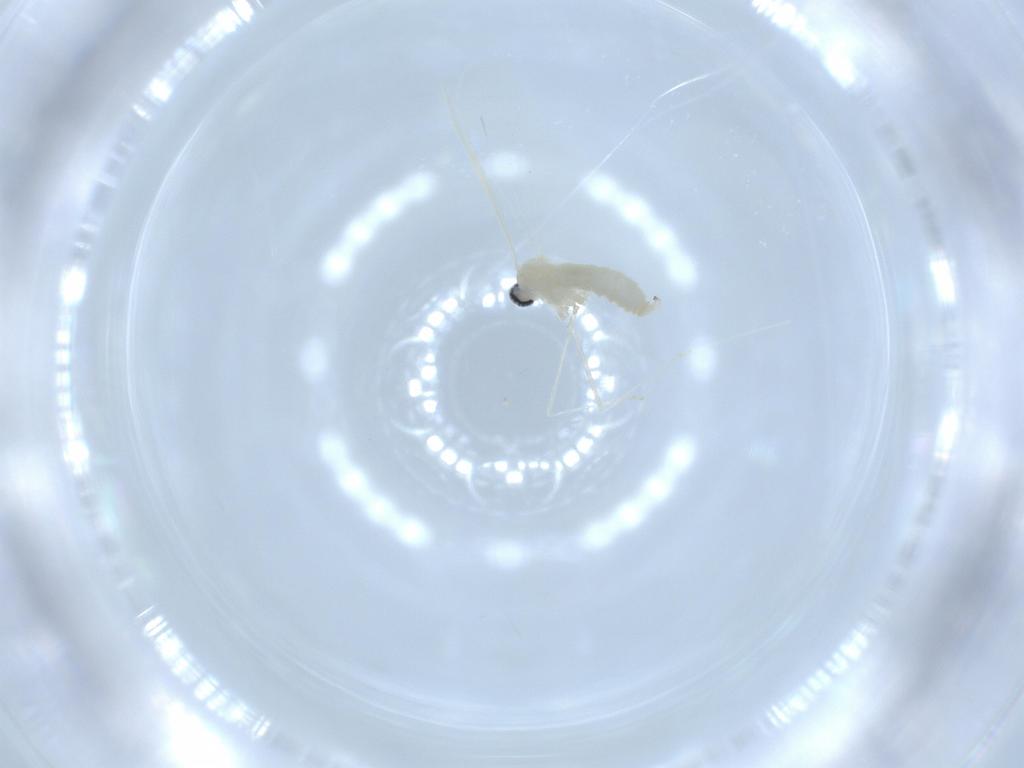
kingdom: Animalia
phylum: Arthropoda
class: Insecta
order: Diptera
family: Cecidomyiidae
